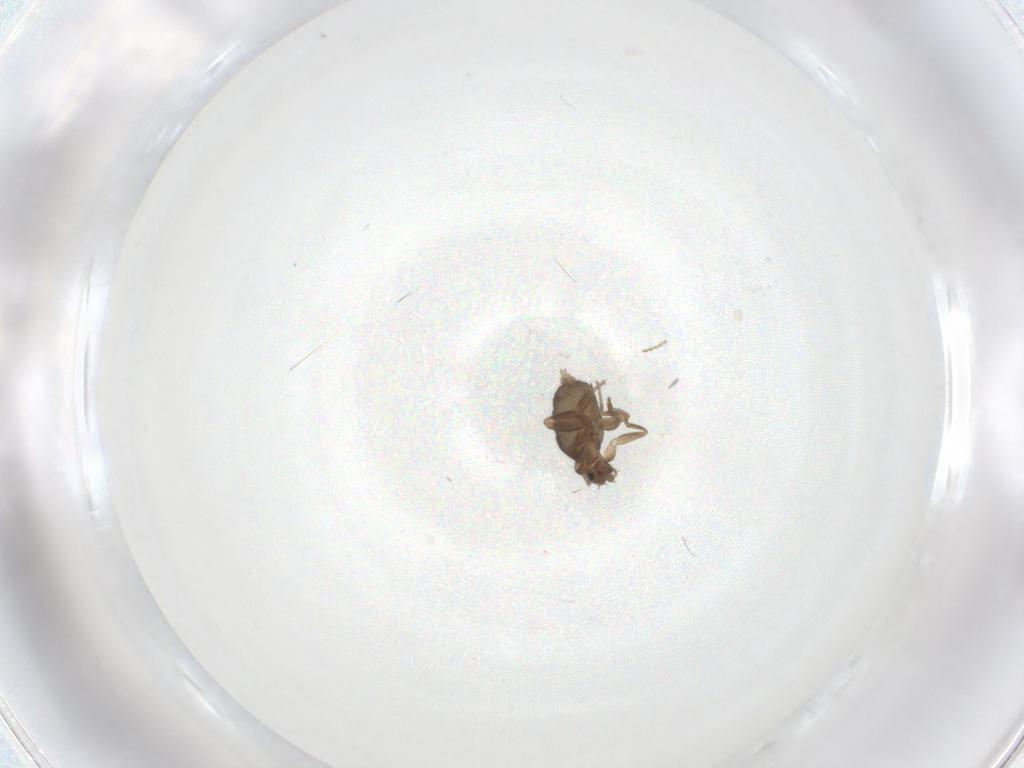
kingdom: Animalia
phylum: Arthropoda
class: Insecta
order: Diptera
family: Phoridae
